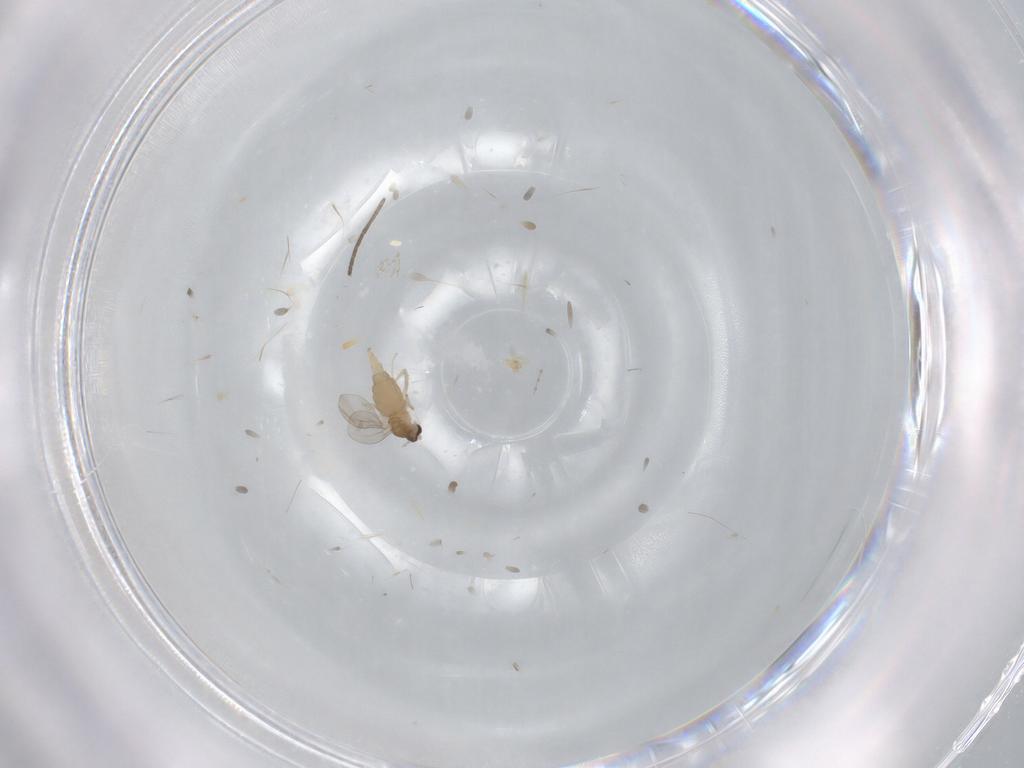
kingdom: Animalia
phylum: Arthropoda
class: Insecta
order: Diptera
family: Cecidomyiidae
